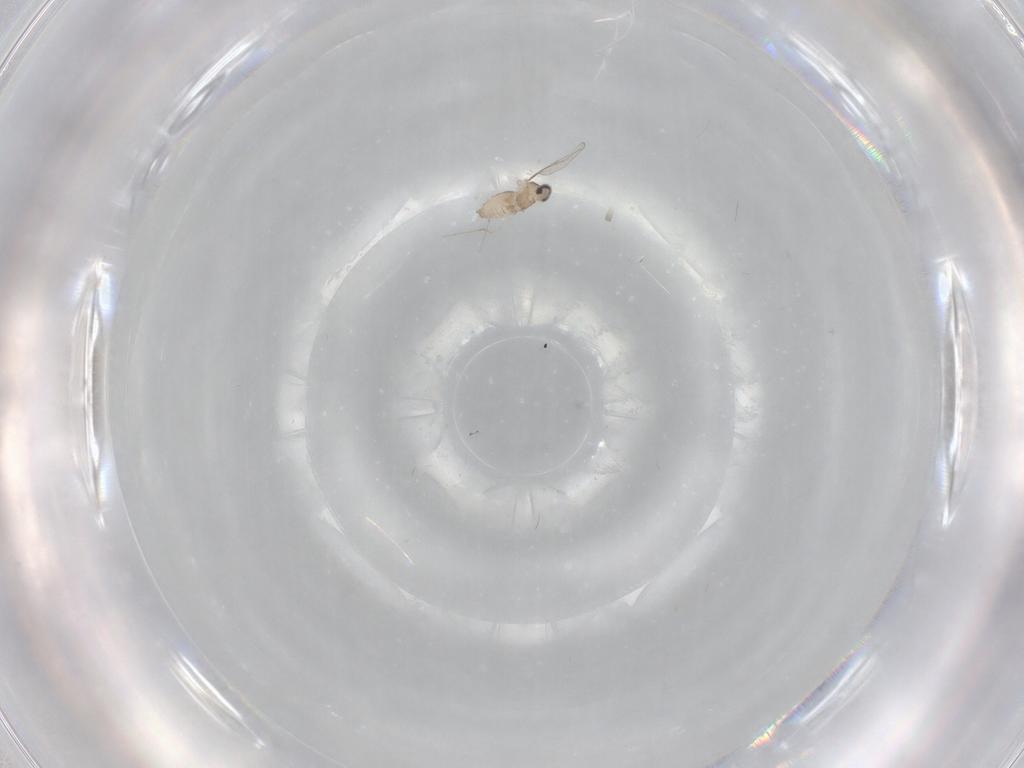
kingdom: Animalia
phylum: Arthropoda
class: Insecta
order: Diptera
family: Cecidomyiidae
